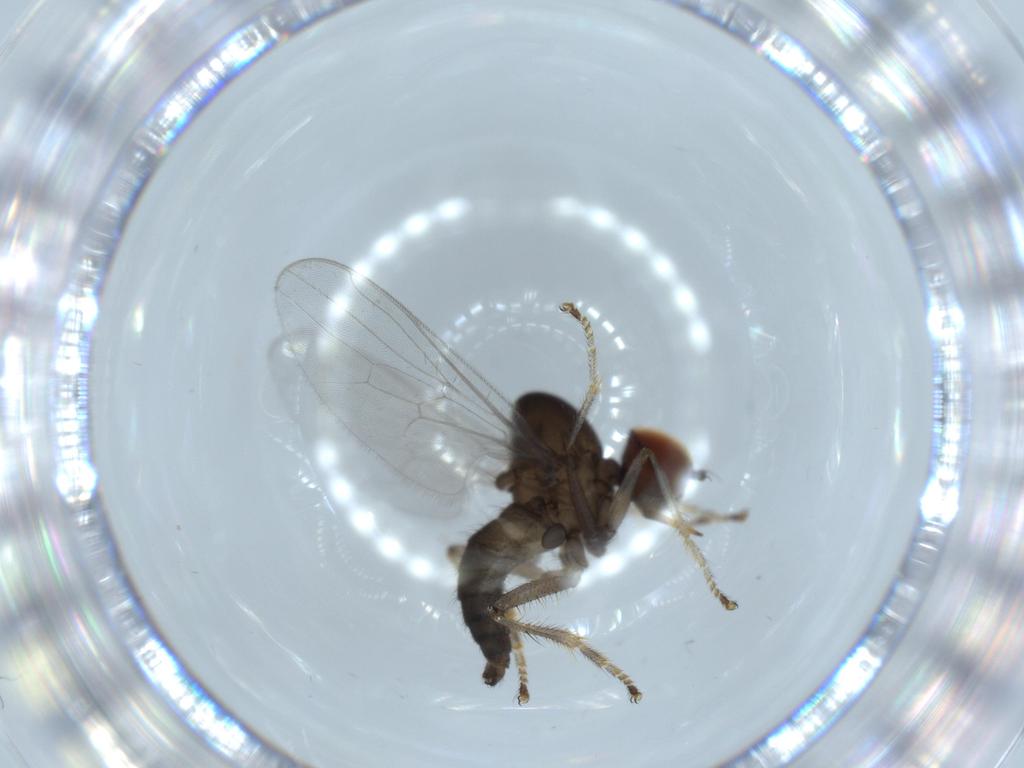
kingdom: Animalia
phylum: Arthropoda
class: Insecta
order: Diptera
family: Hybotidae
